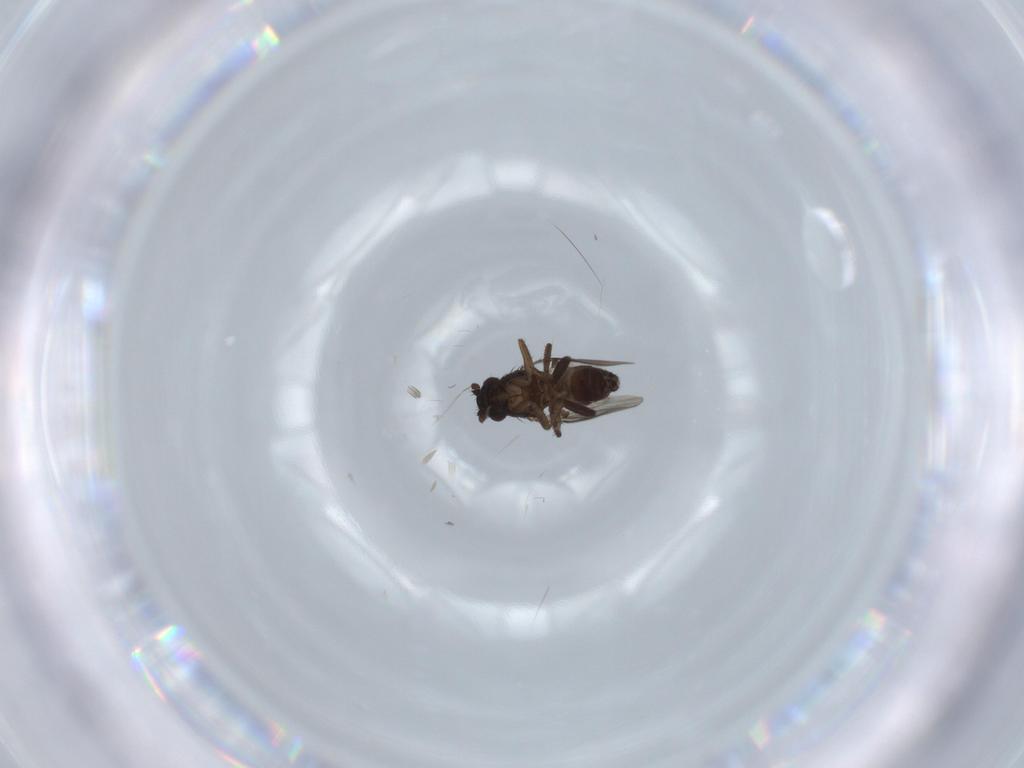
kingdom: Animalia
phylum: Arthropoda
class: Insecta
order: Diptera
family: Sphaeroceridae
